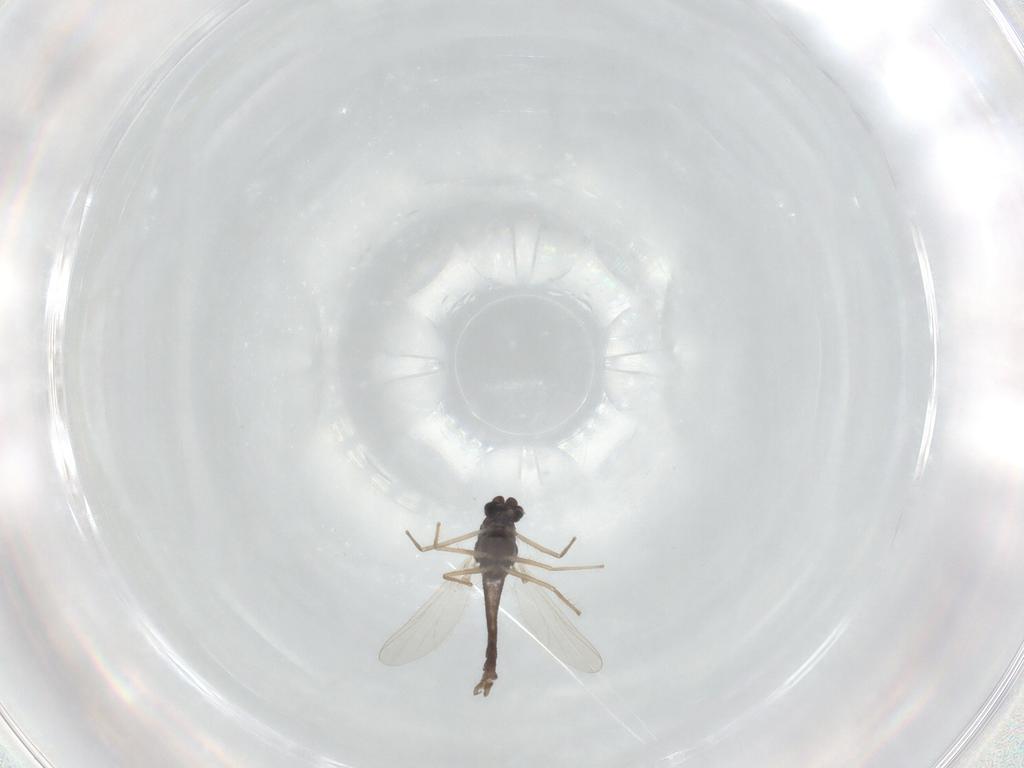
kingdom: Animalia
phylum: Arthropoda
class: Insecta
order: Diptera
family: Chironomidae
